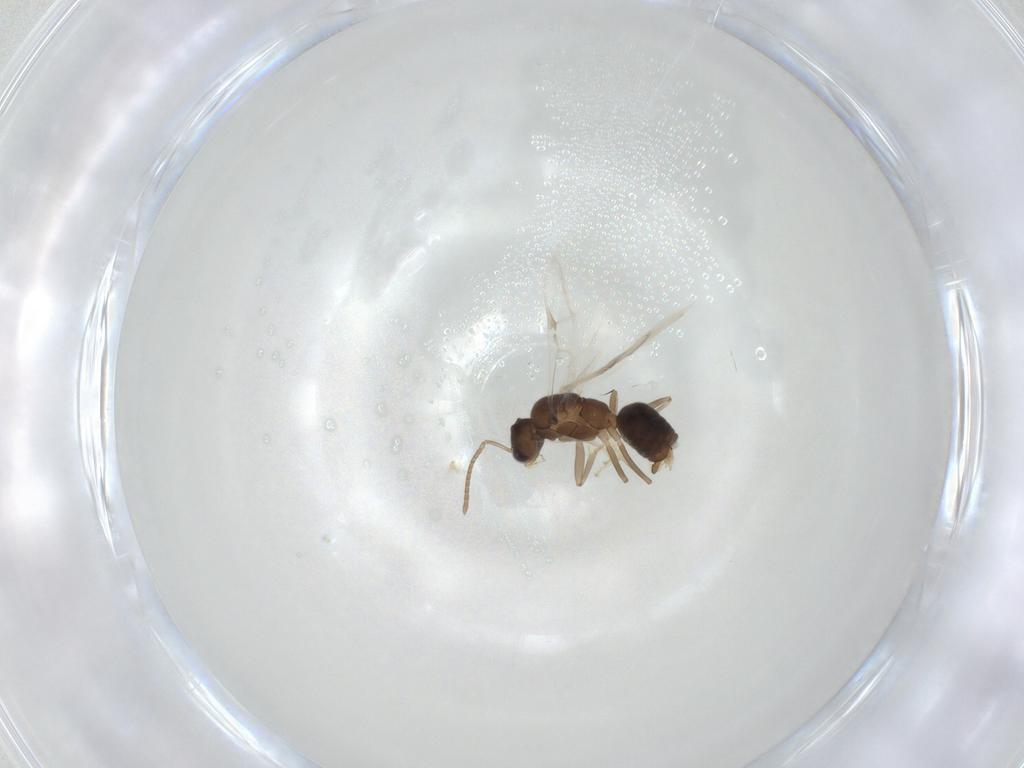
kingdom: Animalia
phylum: Arthropoda
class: Insecta
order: Hymenoptera
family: Formicidae
